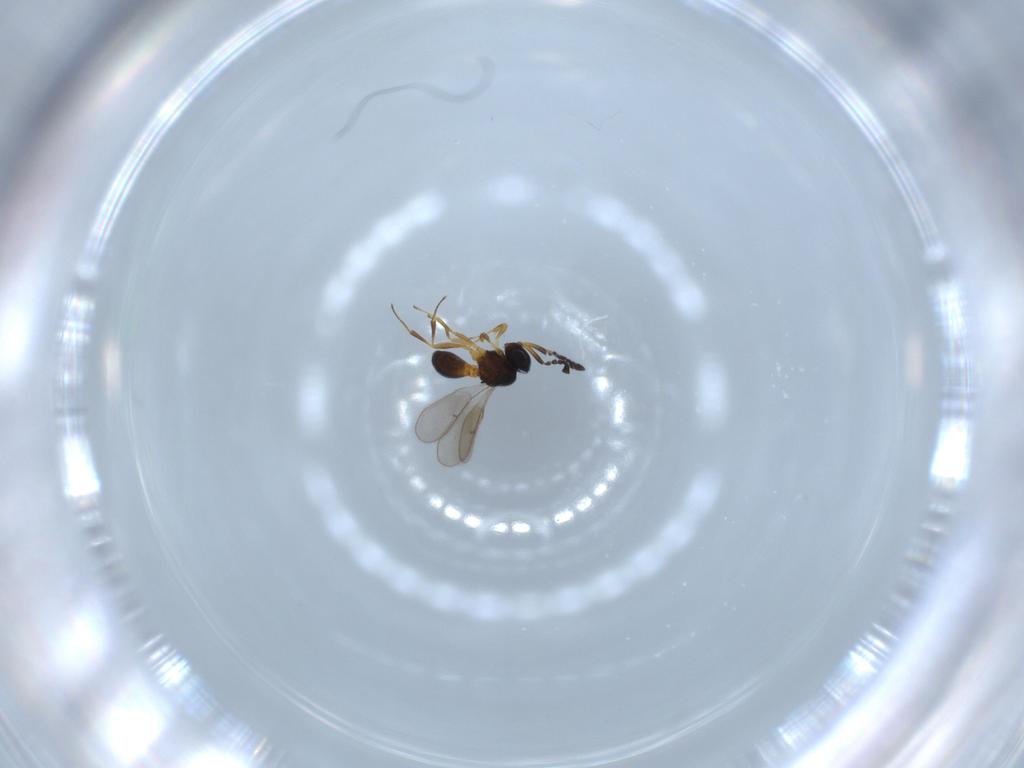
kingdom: Animalia
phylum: Arthropoda
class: Insecta
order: Hymenoptera
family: Scelionidae
